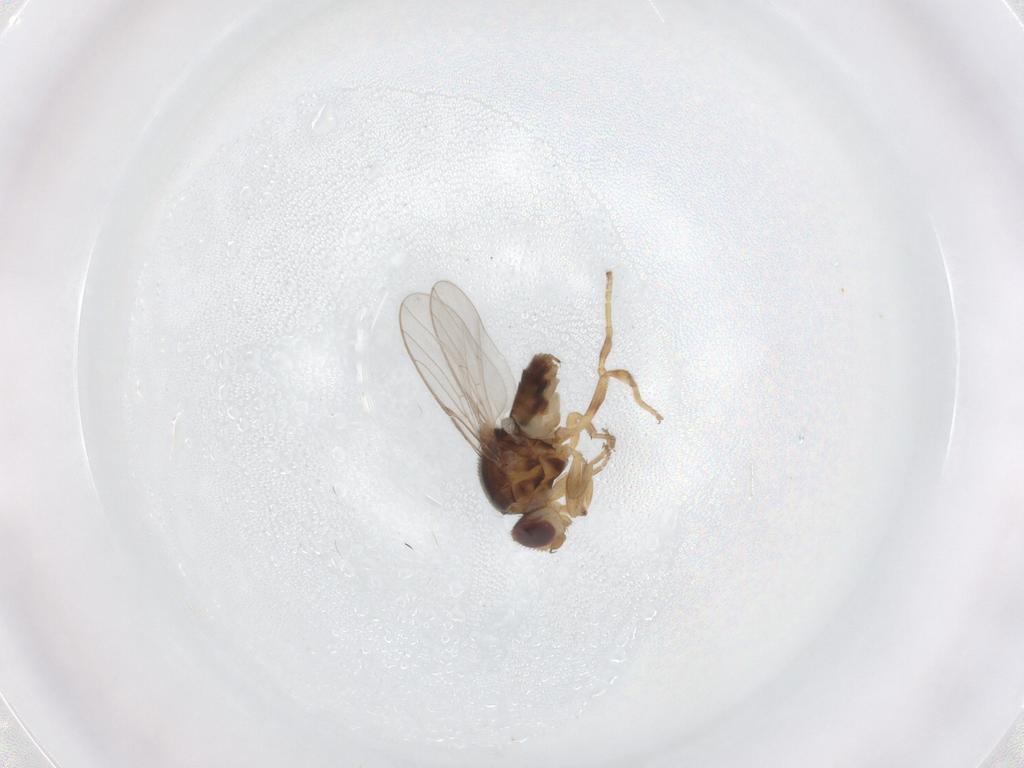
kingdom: Animalia
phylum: Arthropoda
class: Insecta
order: Diptera
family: Chloropidae
